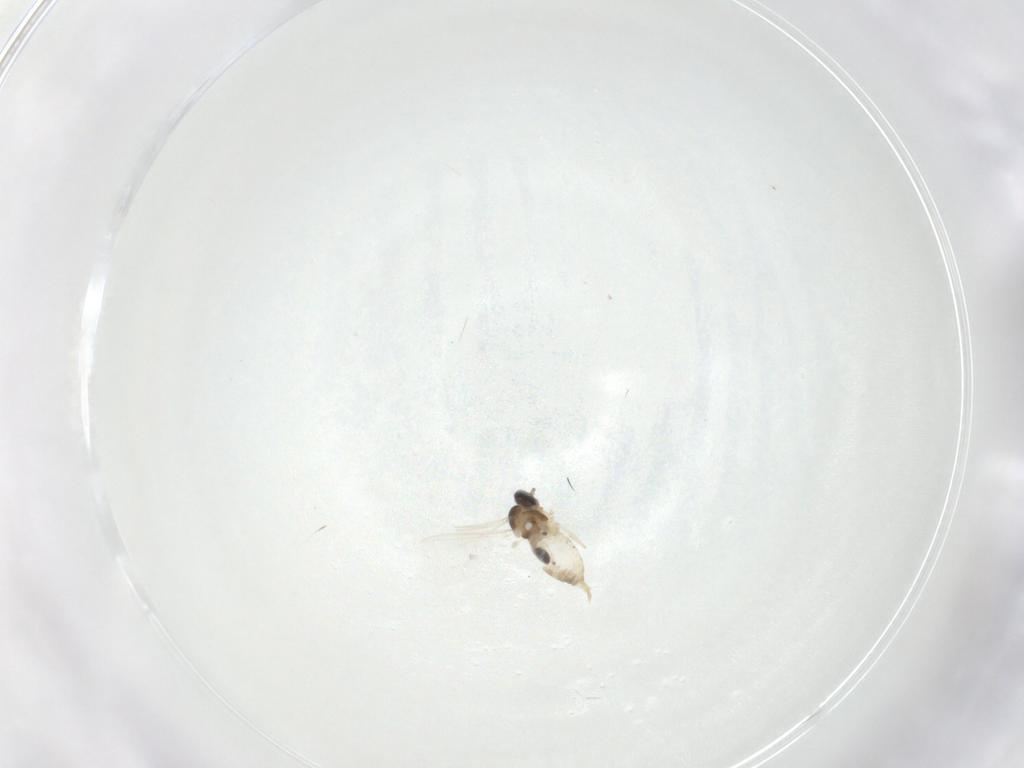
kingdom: Animalia
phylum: Arthropoda
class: Insecta
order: Diptera
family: Cecidomyiidae
